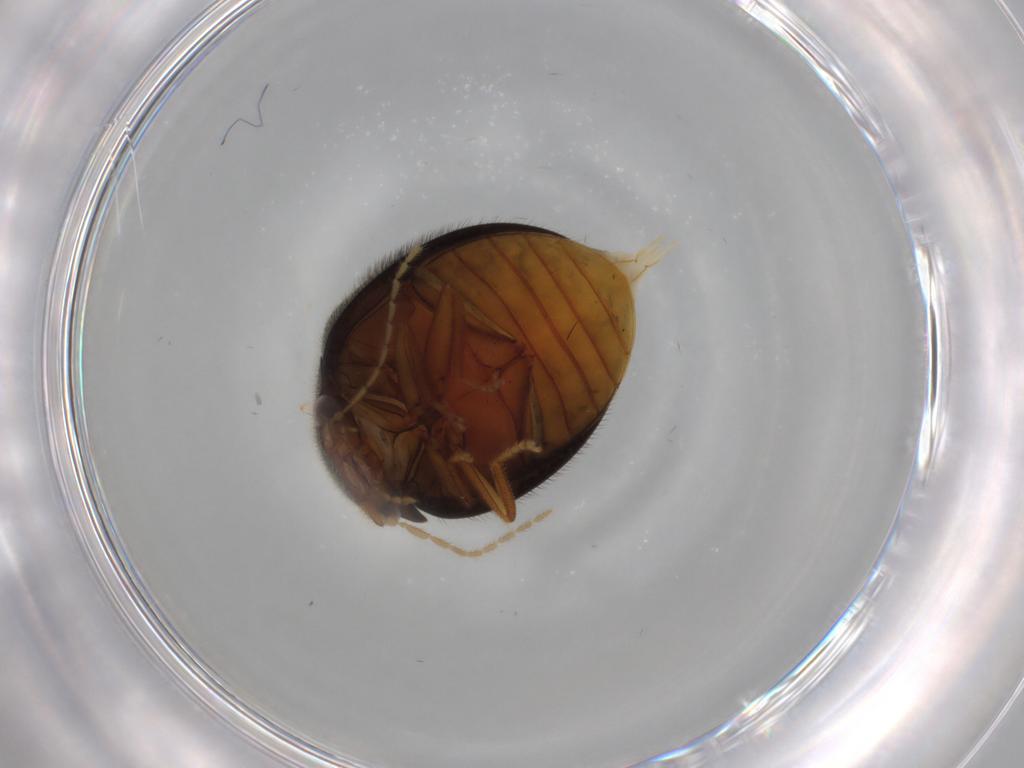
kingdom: Animalia
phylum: Arthropoda
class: Insecta
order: Coleoptera
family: Scirtidae
